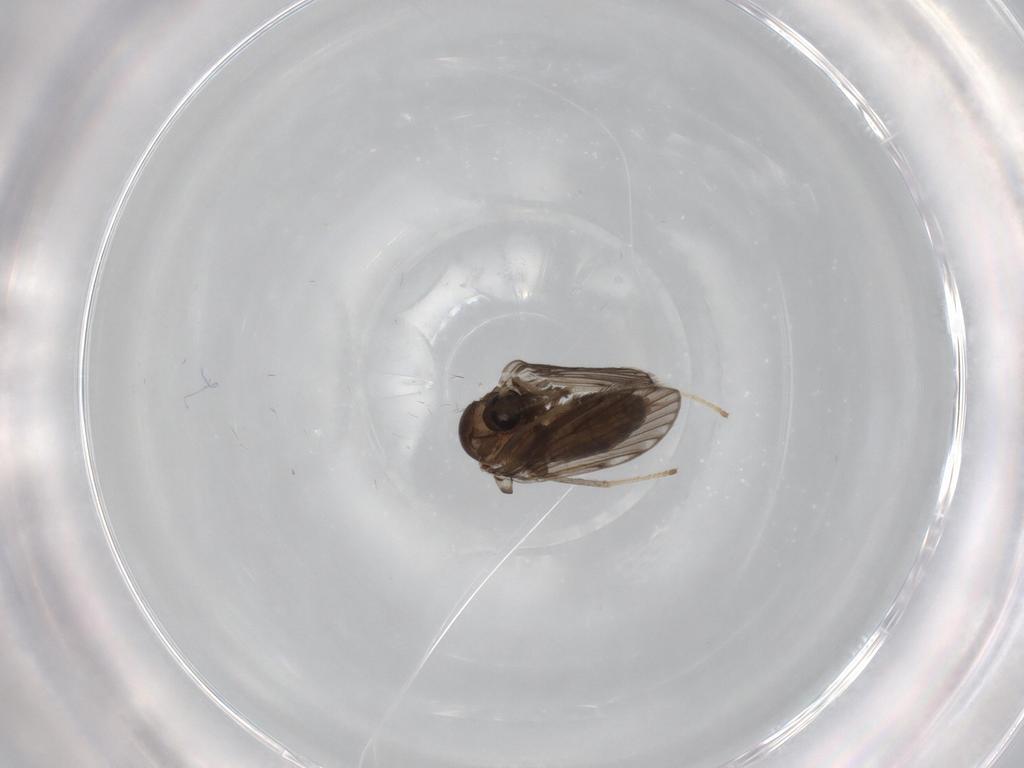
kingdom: Animalia
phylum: Arthropoda
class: Insecta
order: Diptera
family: Psychodidae
